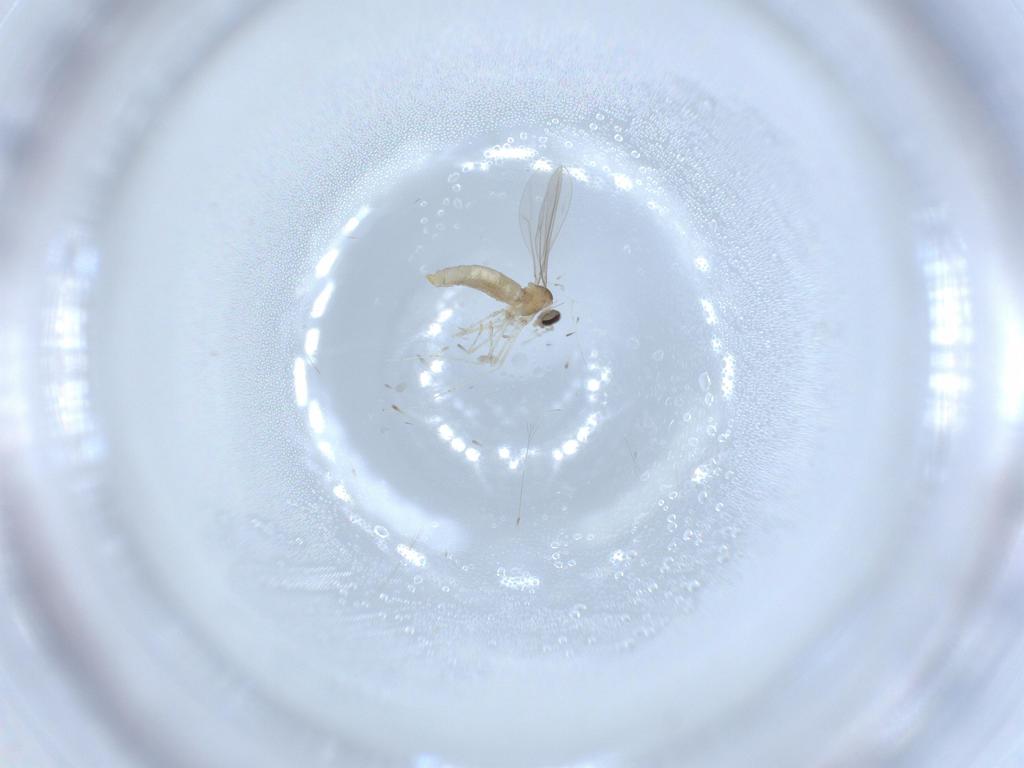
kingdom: Animalia
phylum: Arthropoda
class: Insecta
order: Diptera
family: Cecidomyiidae
